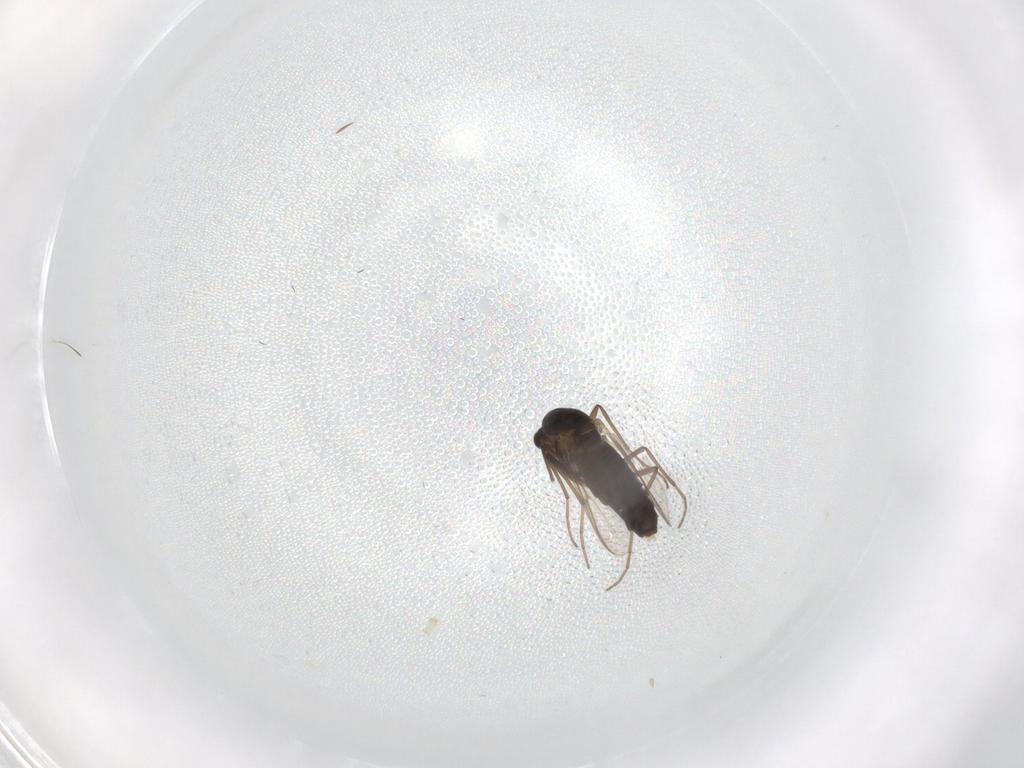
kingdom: Animalia
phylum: Arthropoda
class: Insecta
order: Diptera
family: Chironomidae
